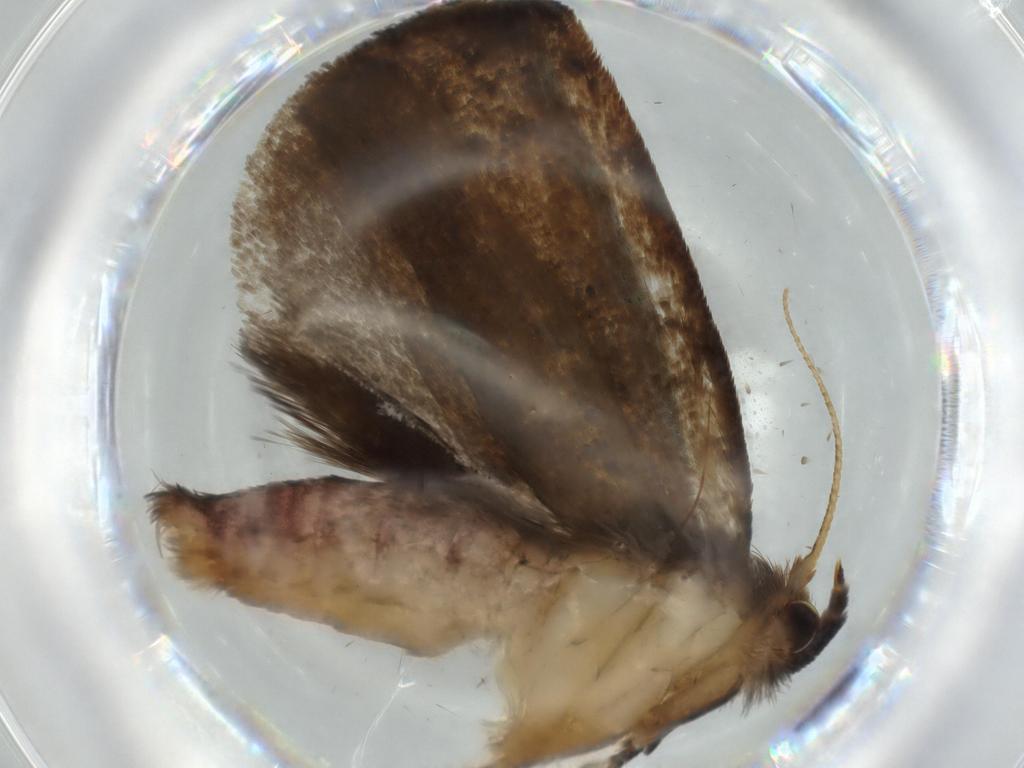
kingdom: Animalia
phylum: Arthropoda
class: Insecta
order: Lepidoptera
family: Tineidae
